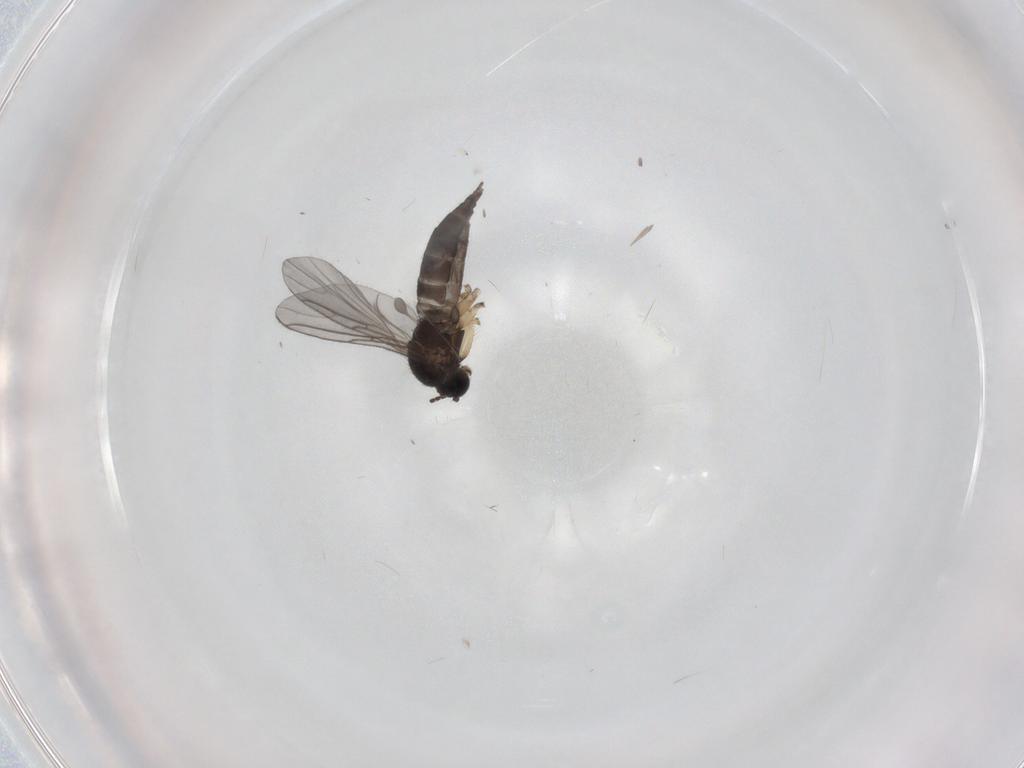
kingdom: Animalia
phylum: Arthropoda
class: Insecta
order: Diptera
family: Sciaridae
